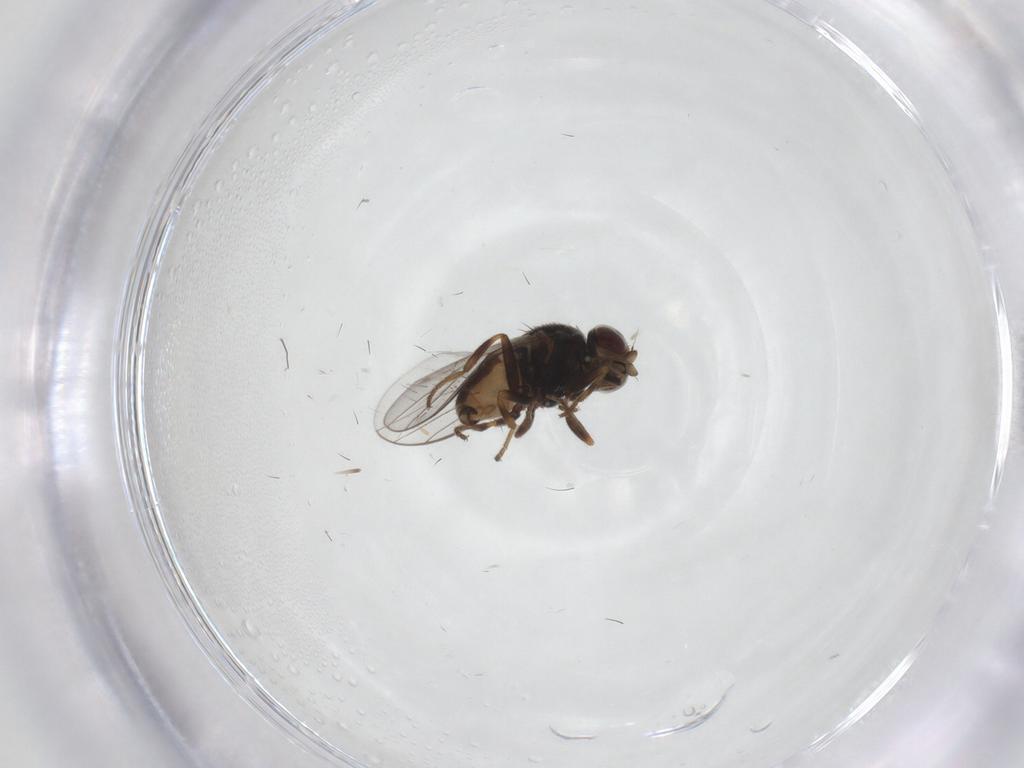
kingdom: Animalia
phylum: Arthropoda
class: Insecta
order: Diptera
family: Chloropidae
